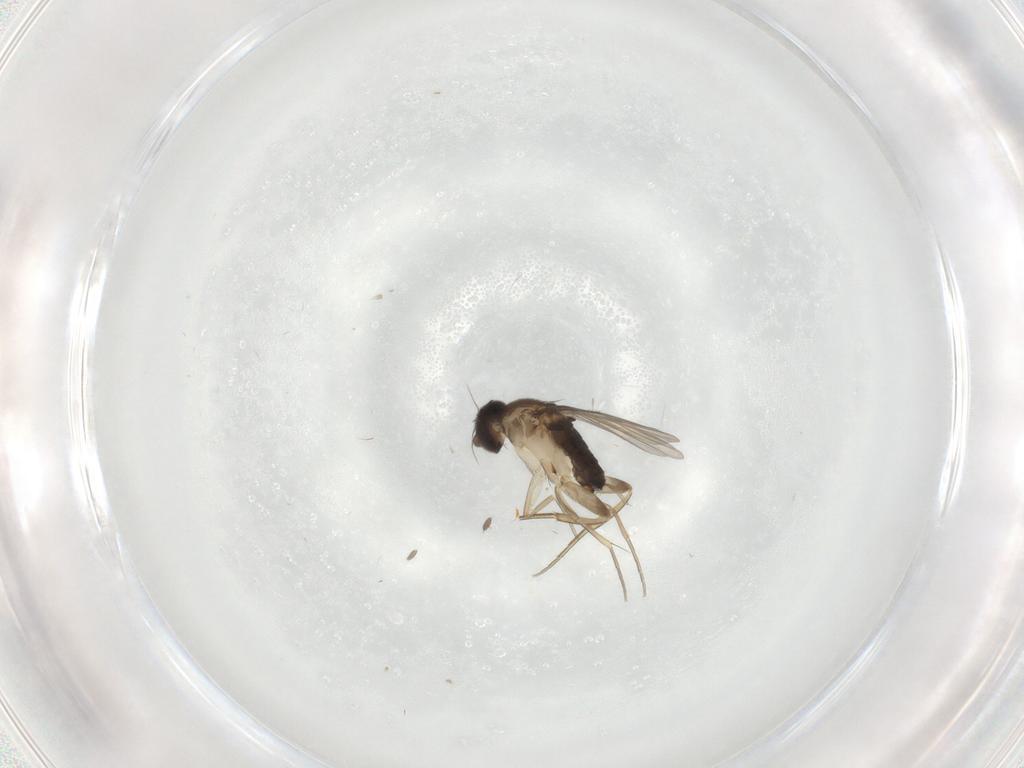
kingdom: Animalia
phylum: Arthropoda
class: Insecta
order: Diptera
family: Phoridae
